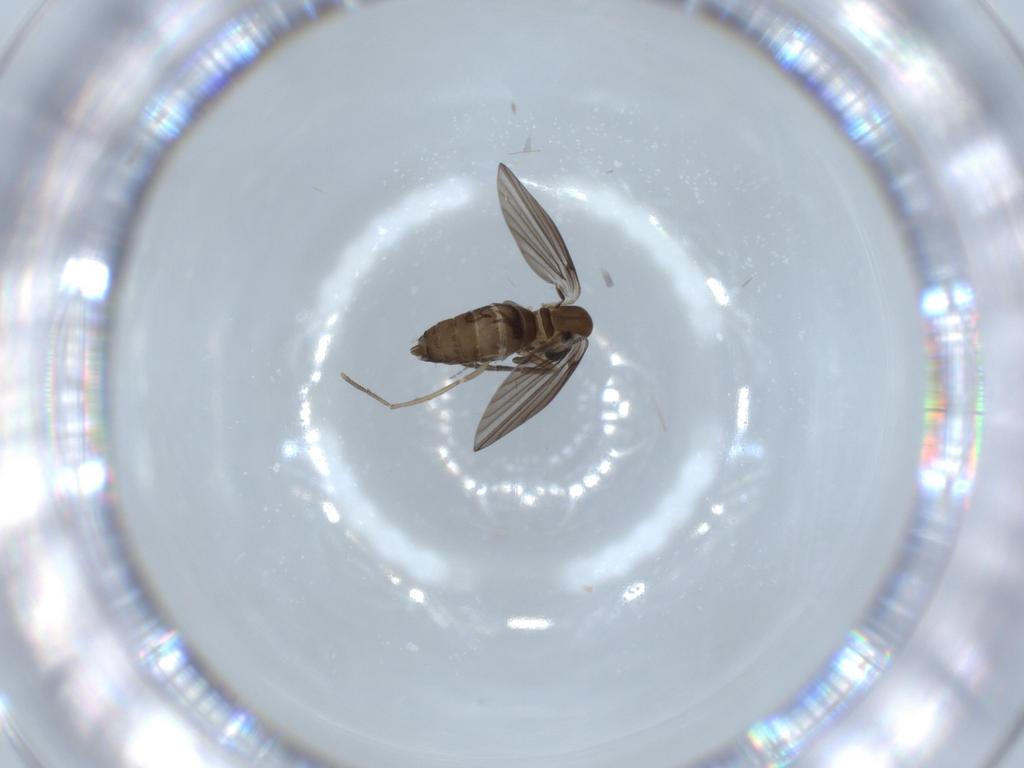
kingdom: Animalia
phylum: Arthropoda
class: Insecta
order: Diptera
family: Psychodidae
